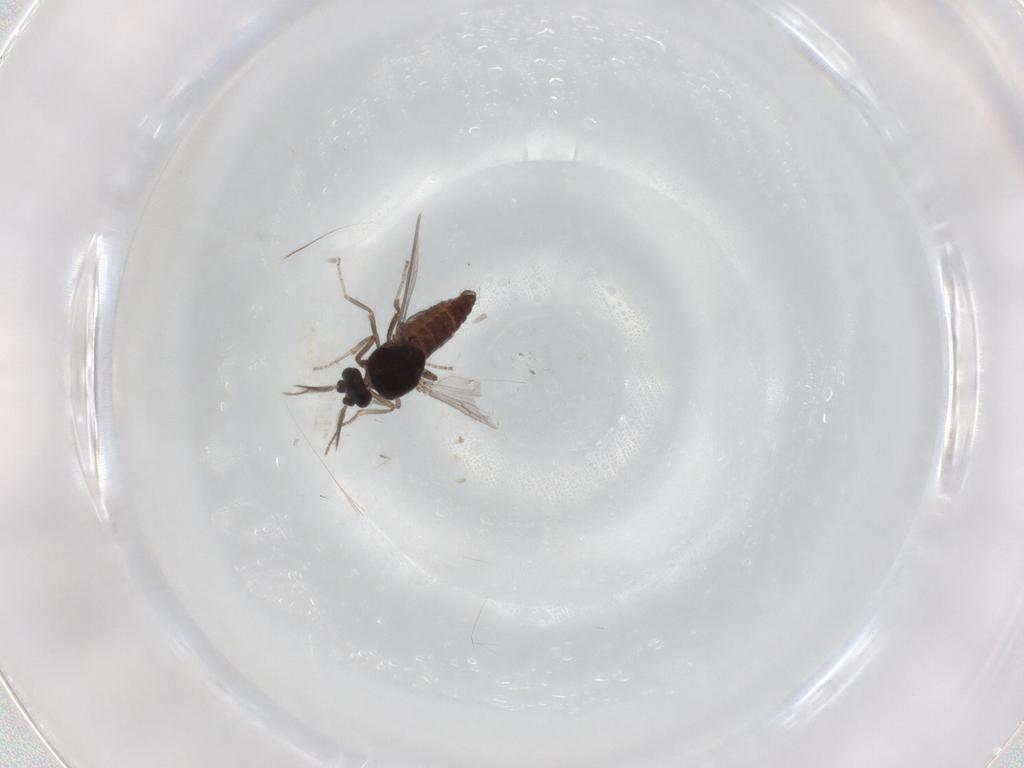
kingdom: Animalia
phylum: Arthropoda
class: Insecta
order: Diptera
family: Ceratopogonidae
